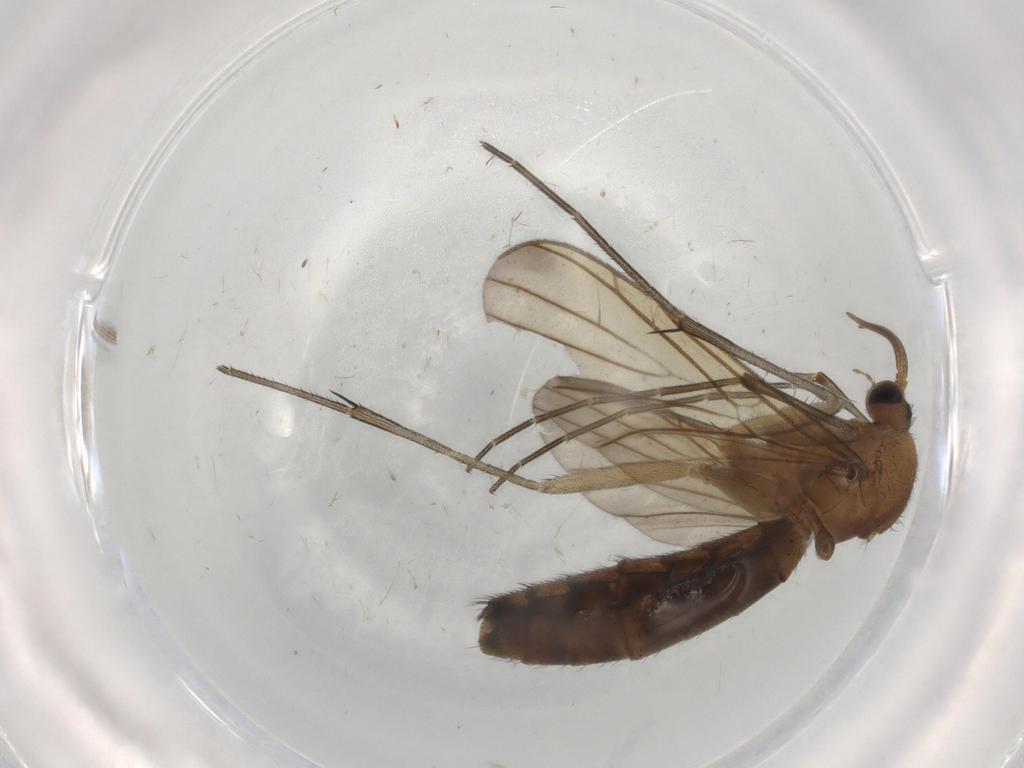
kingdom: Animalia
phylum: Arthropoda
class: Insecta
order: Diptera
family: Keroplatidae
